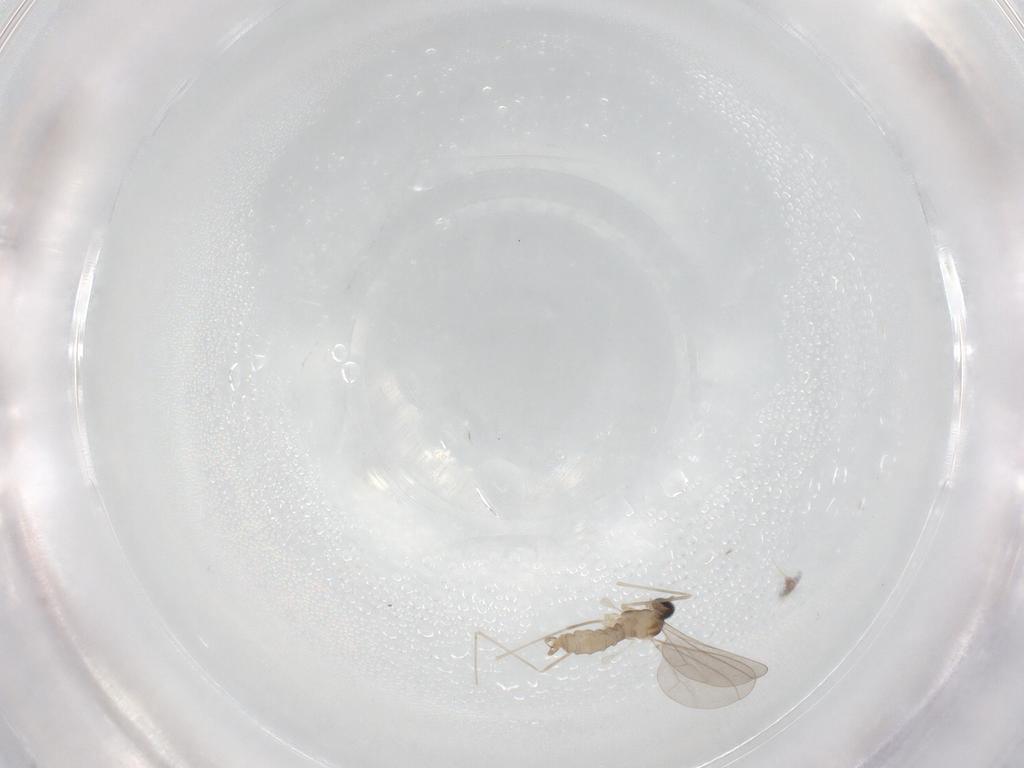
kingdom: Animalia
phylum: Arthropoda
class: Insecta
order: Diptera
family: Cecidomyiidae
